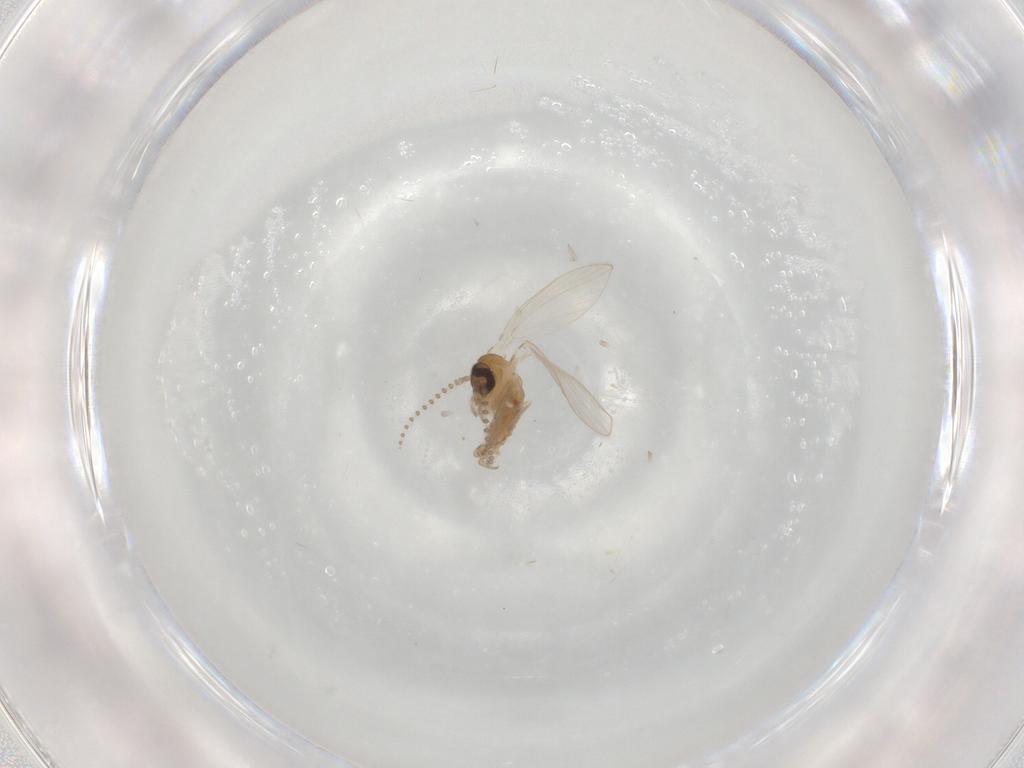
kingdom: Animalia
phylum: Arthropoda
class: Insecta
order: Diptera
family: Psychodidae
